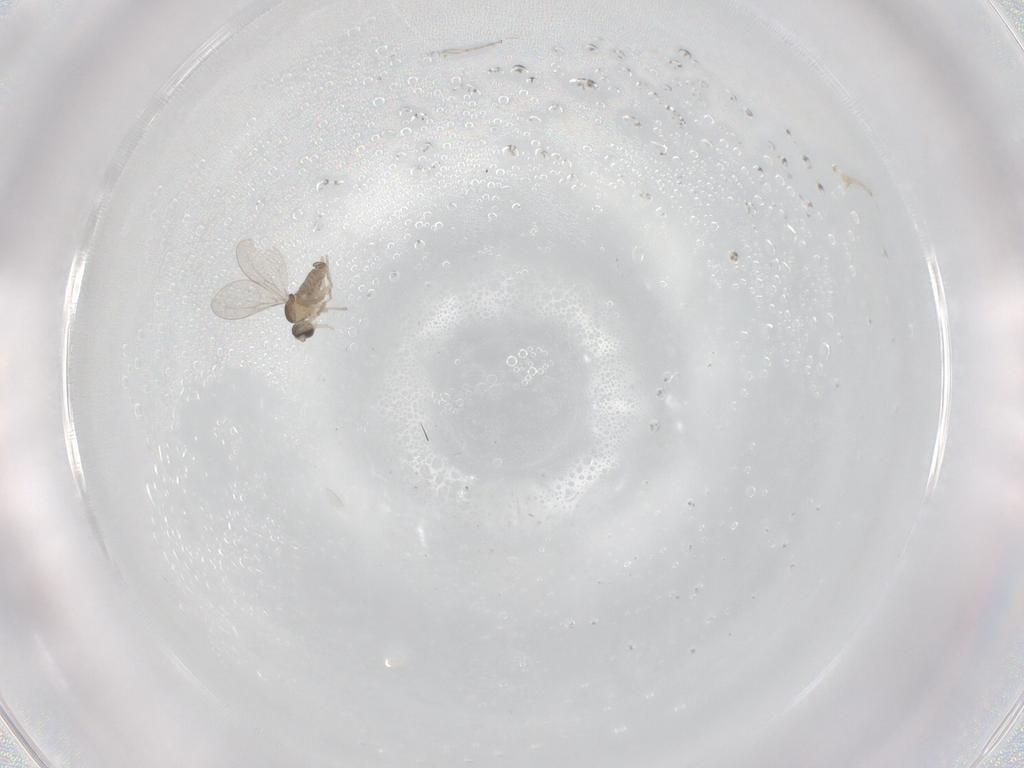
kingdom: Animalia
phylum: Arthropoda
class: Insecta
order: Diptera
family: Cecidomyiidae
